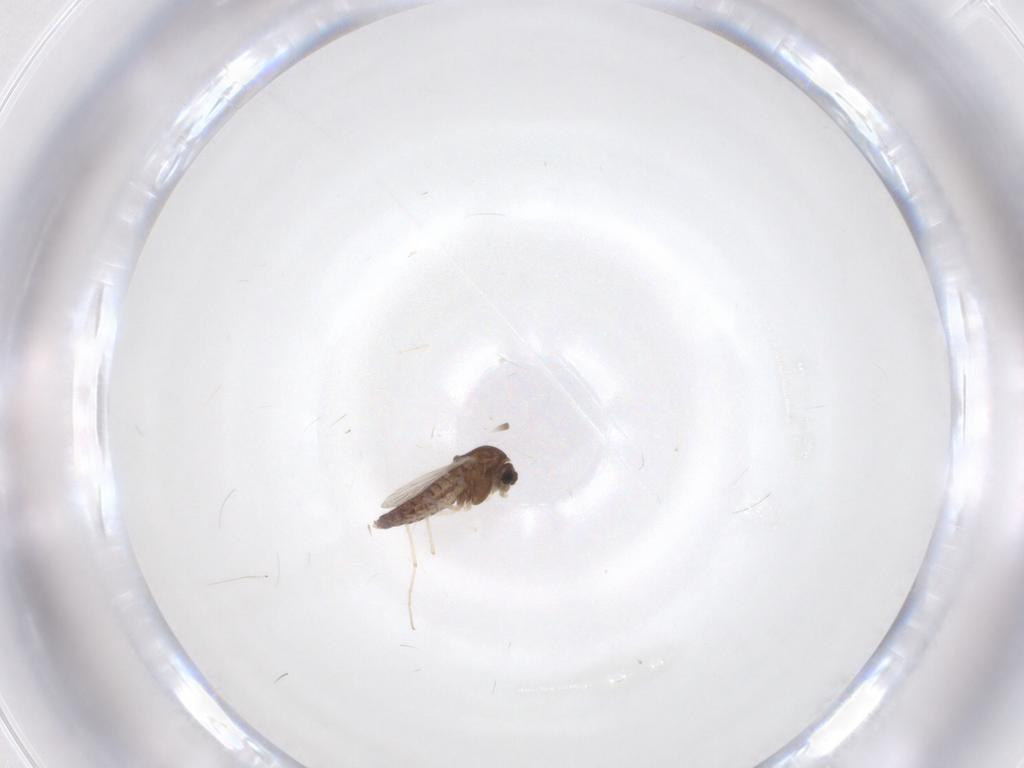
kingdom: Animalia
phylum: Arthropoda
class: Insecta
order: Diptera
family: Chironomidae
